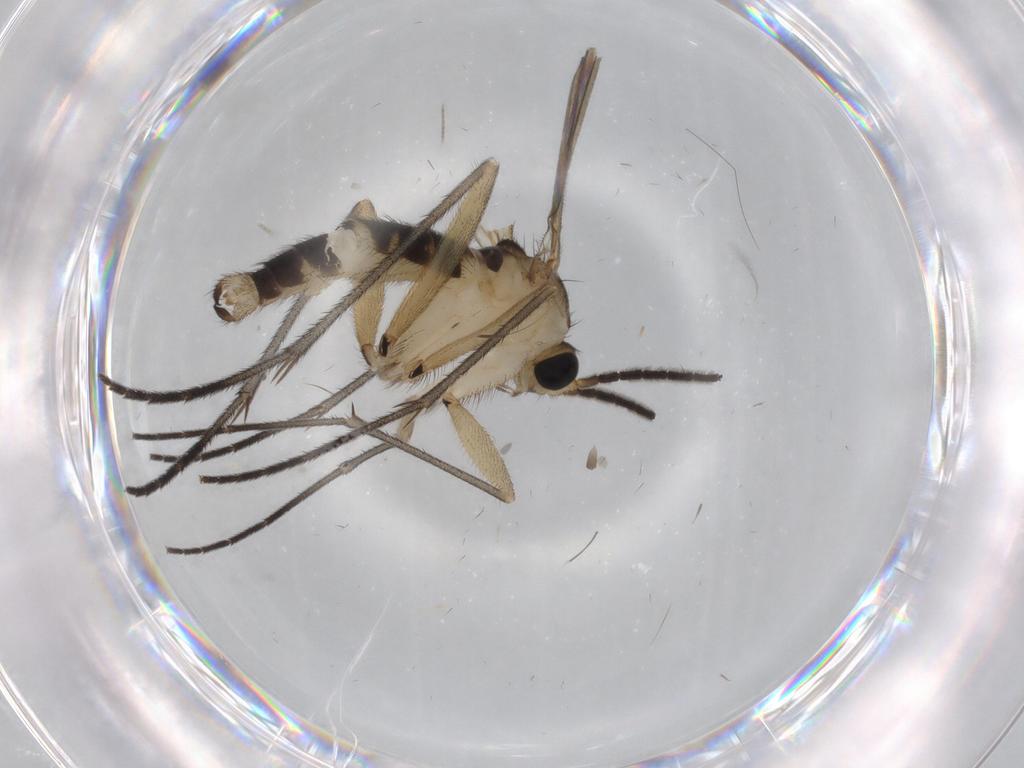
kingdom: Animalia
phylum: Arthropoda
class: Insecta
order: Diptera
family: Sciaridae
